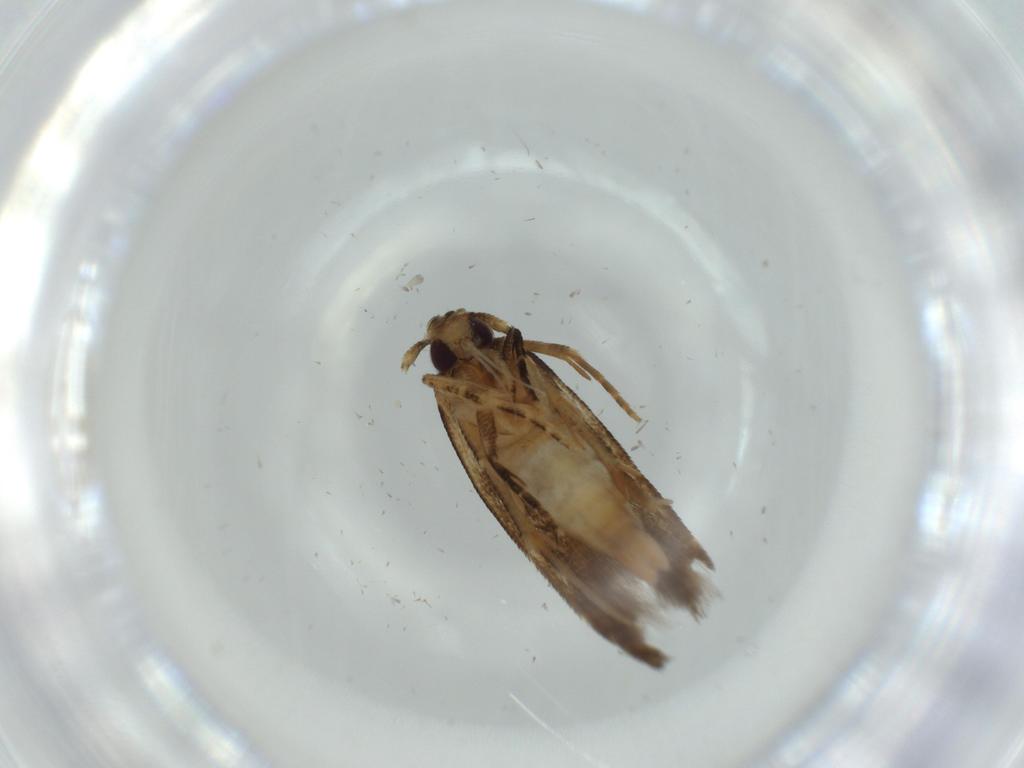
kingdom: Animalia
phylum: Arthropoda
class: Insecta
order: Lepidoptera
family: Cosmopterigidae
